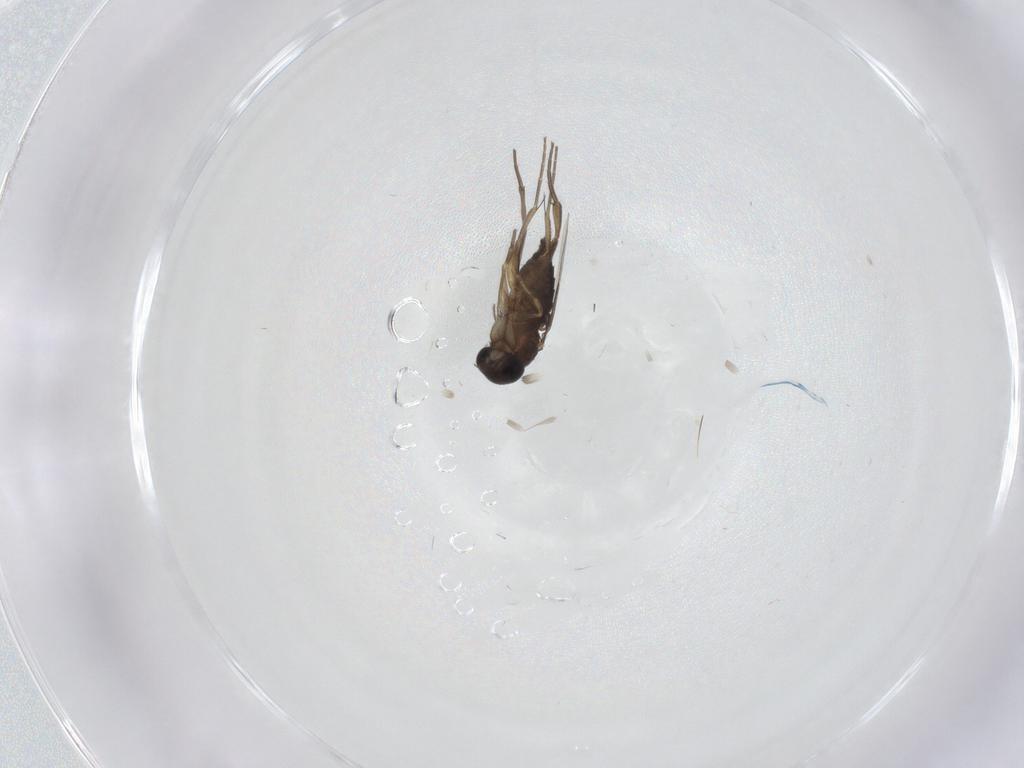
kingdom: Animalia
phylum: Arthropoda
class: Insecta
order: Diptera
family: Phoridae
